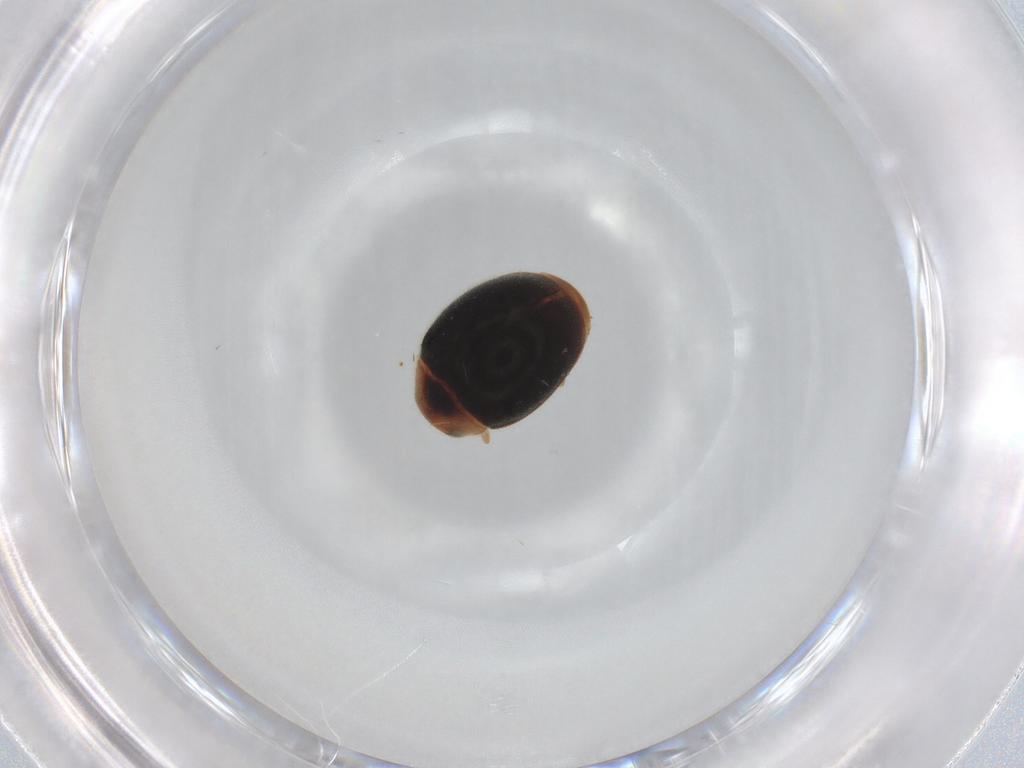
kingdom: Animalia
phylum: Arthropoda
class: Insecta
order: Coleoptera
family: Coccinellidae
